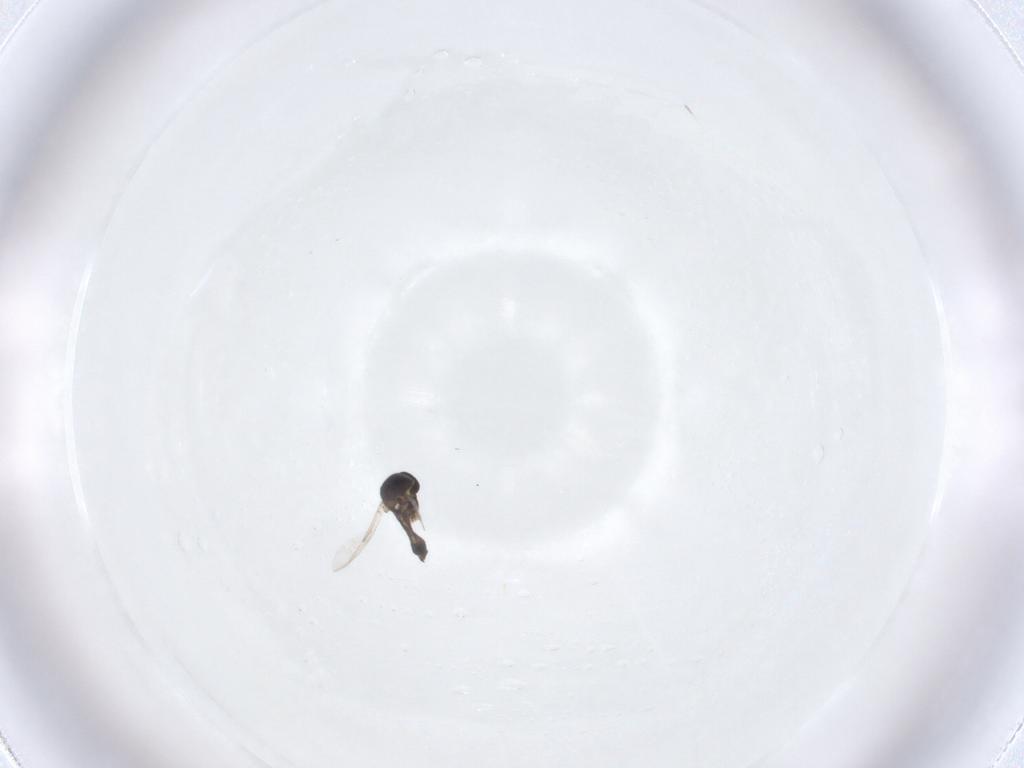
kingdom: Animalia
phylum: Arthropoda
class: Insecta
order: Diptera
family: Ceratopogonidae
